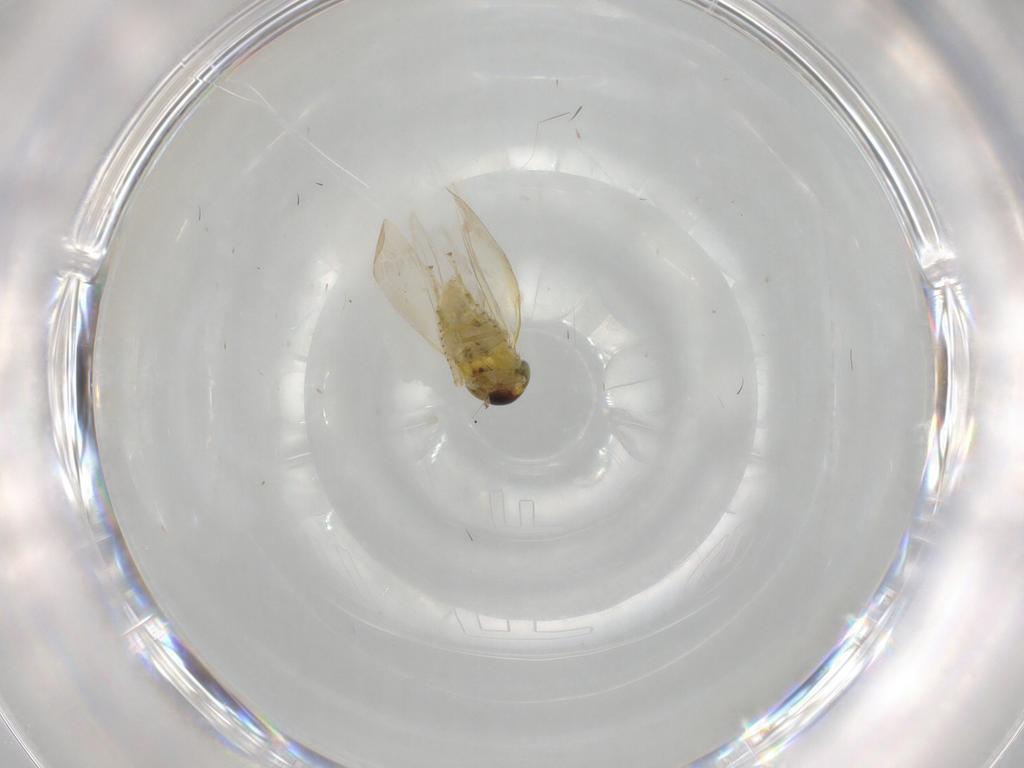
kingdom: Animalia
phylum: Arthropoda
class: Insecta
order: Hemiptera
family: Cicadellidae
